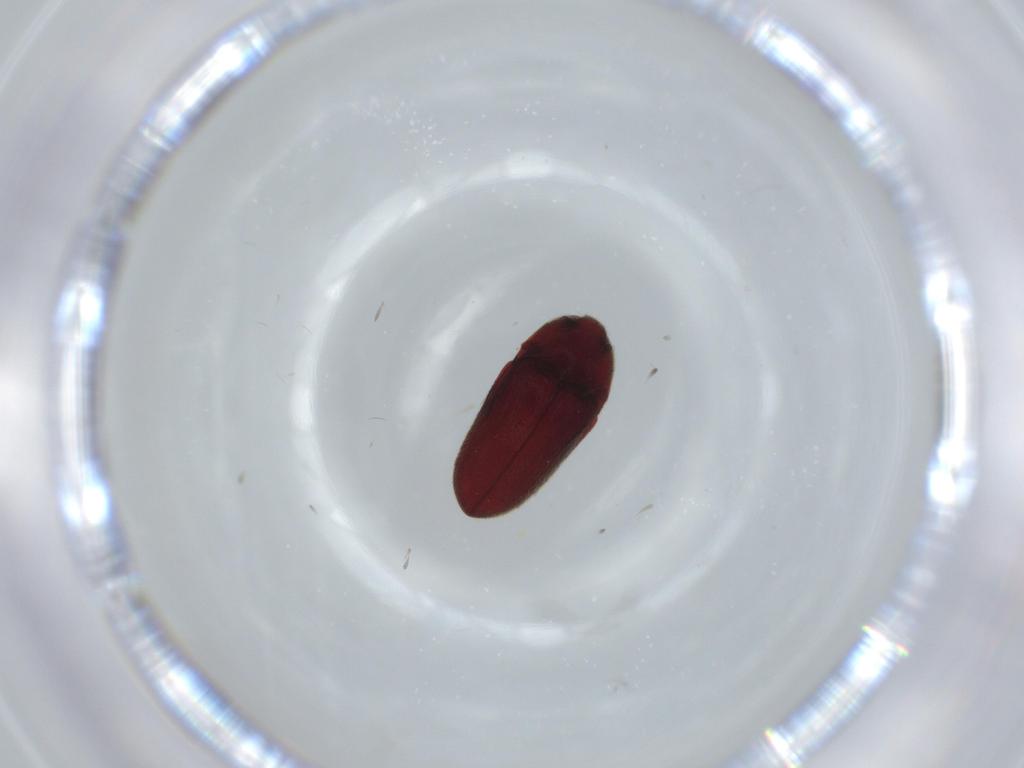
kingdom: Animalia
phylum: Arthropoda
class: Insecta
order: Coleoptera
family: Throscidae
